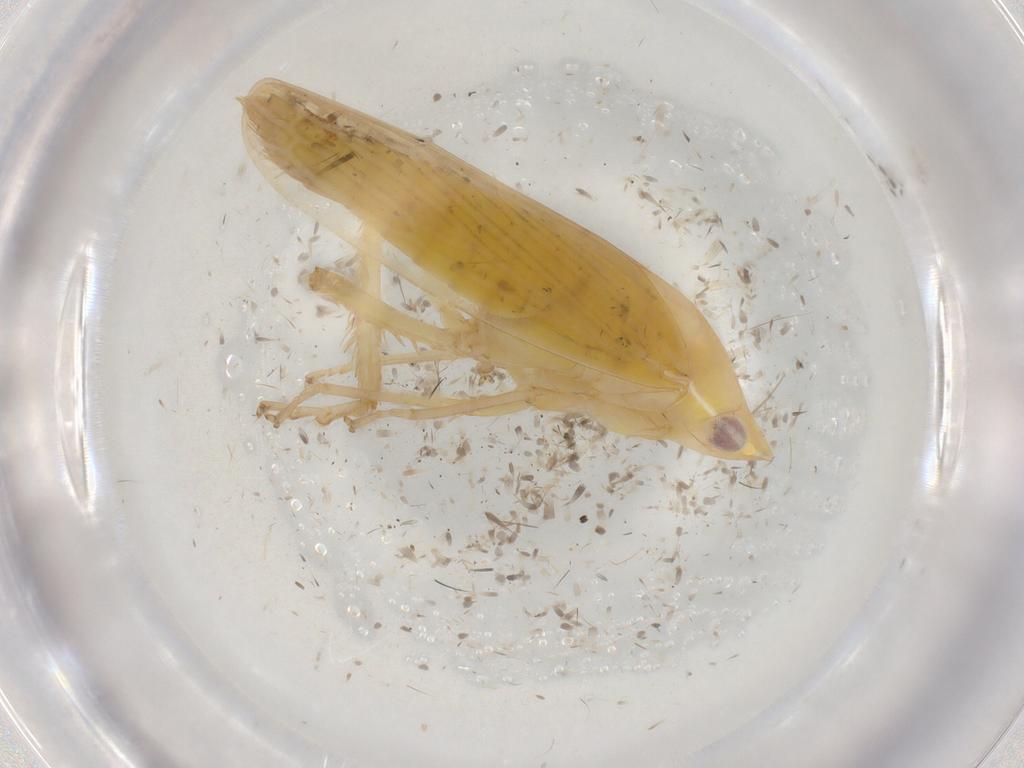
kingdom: Animalia
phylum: Arthropoda
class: Insecta
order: Hemiptera
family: Cicadellidae
